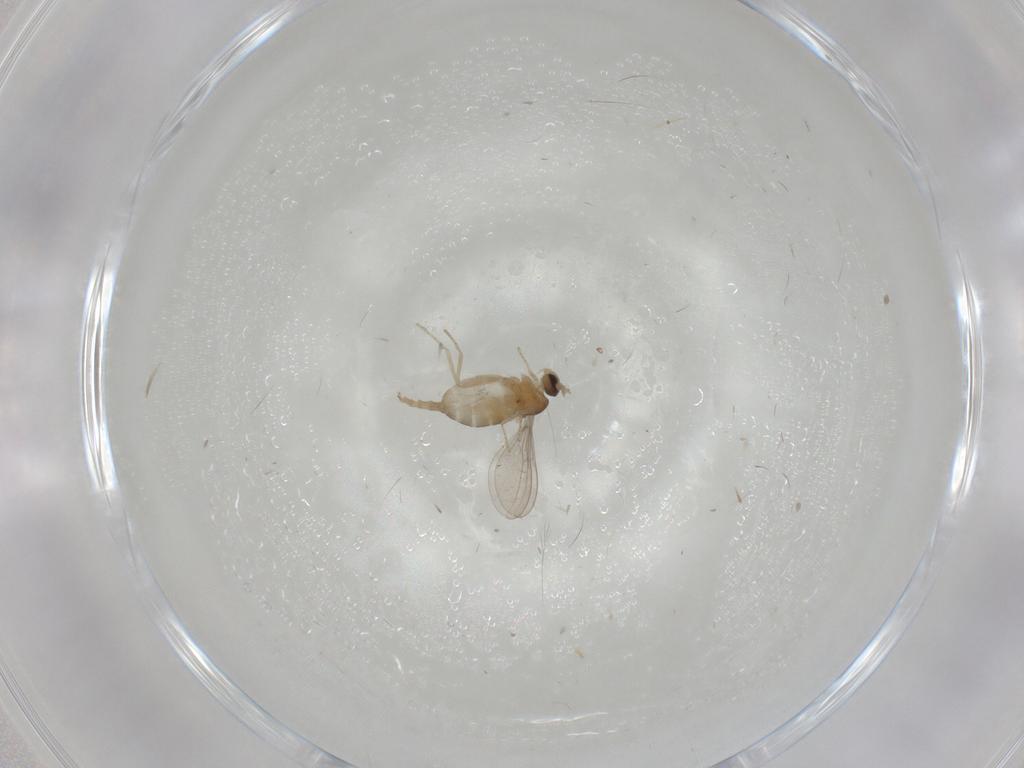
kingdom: Animalia
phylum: Arthropoda
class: Insecta
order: Diptera
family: Cecidomyiidae
